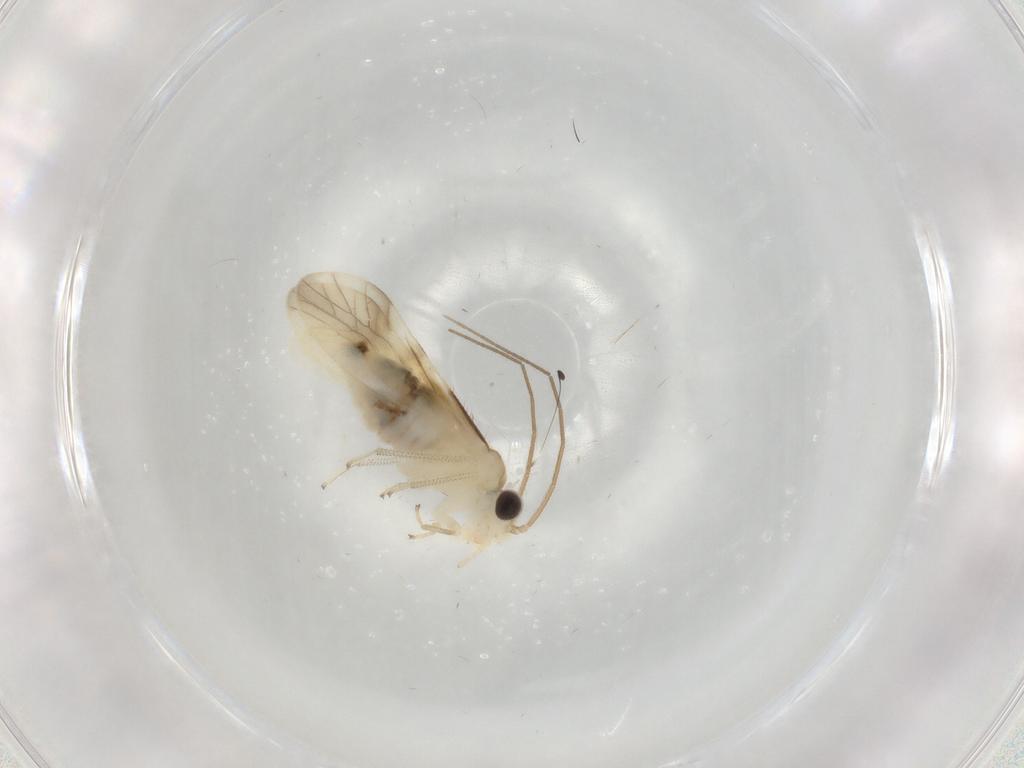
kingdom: Animalia
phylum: Arthropoda
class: Insecta
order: Psocodea
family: Caeciliusidae
